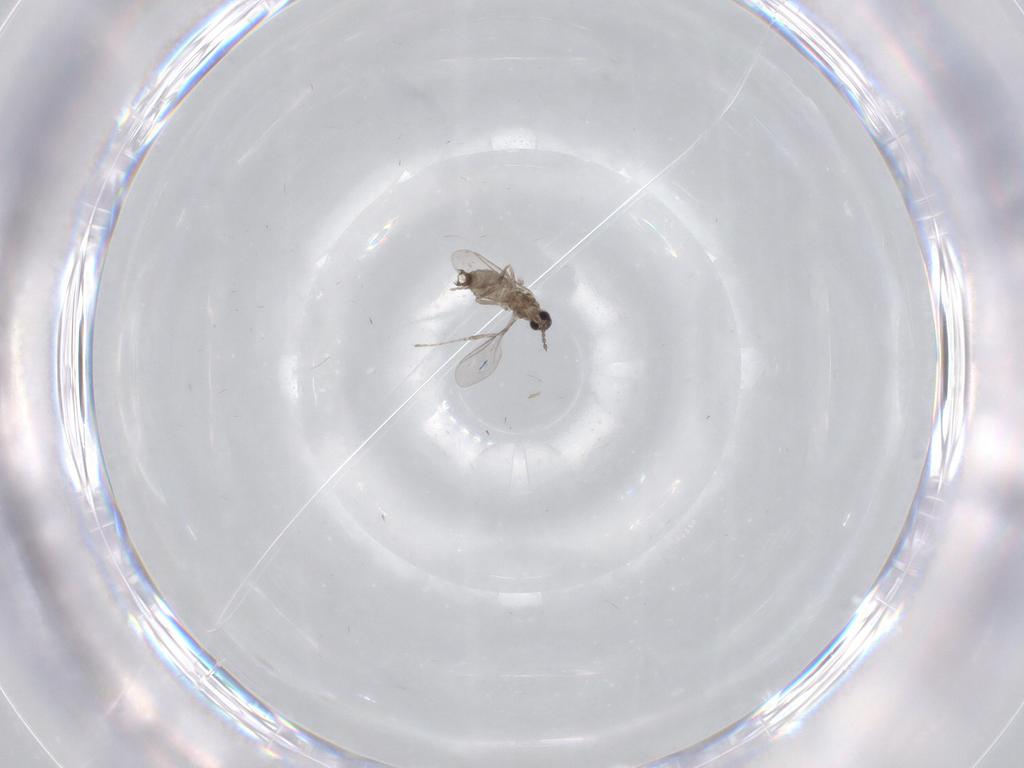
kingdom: Animalia
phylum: Arthropoda
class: Insecta
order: Diptera
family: Cecidomyiidae
